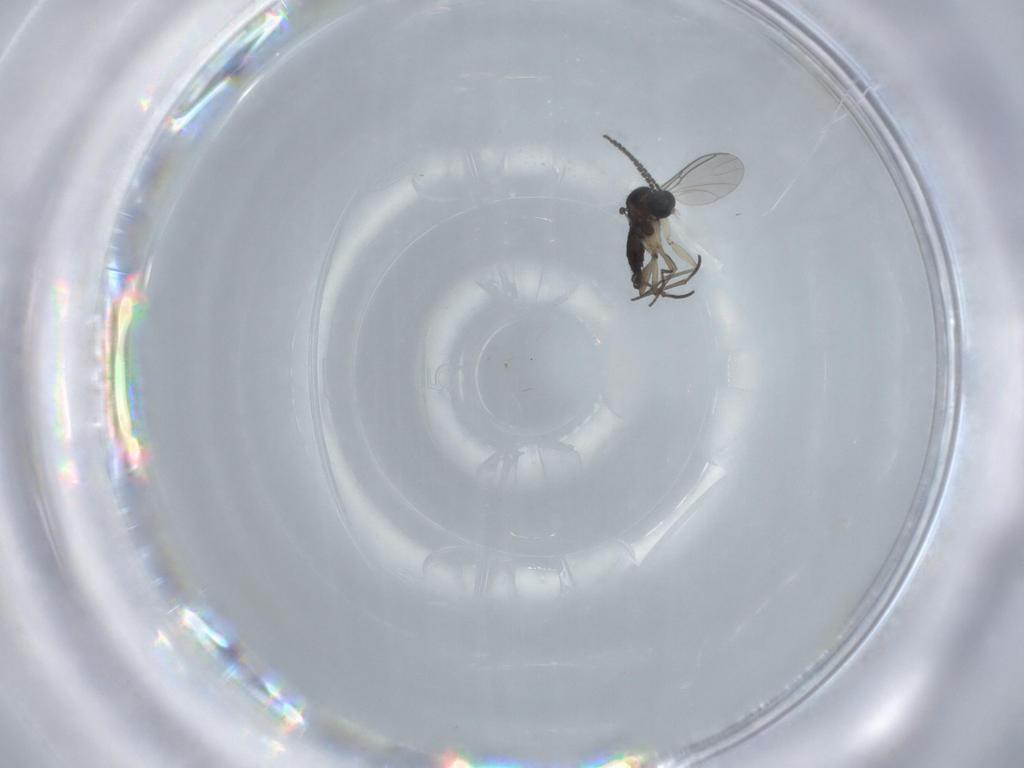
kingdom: Animalia
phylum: Arthropoda
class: Insecta
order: Diptera
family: Sciaridae
